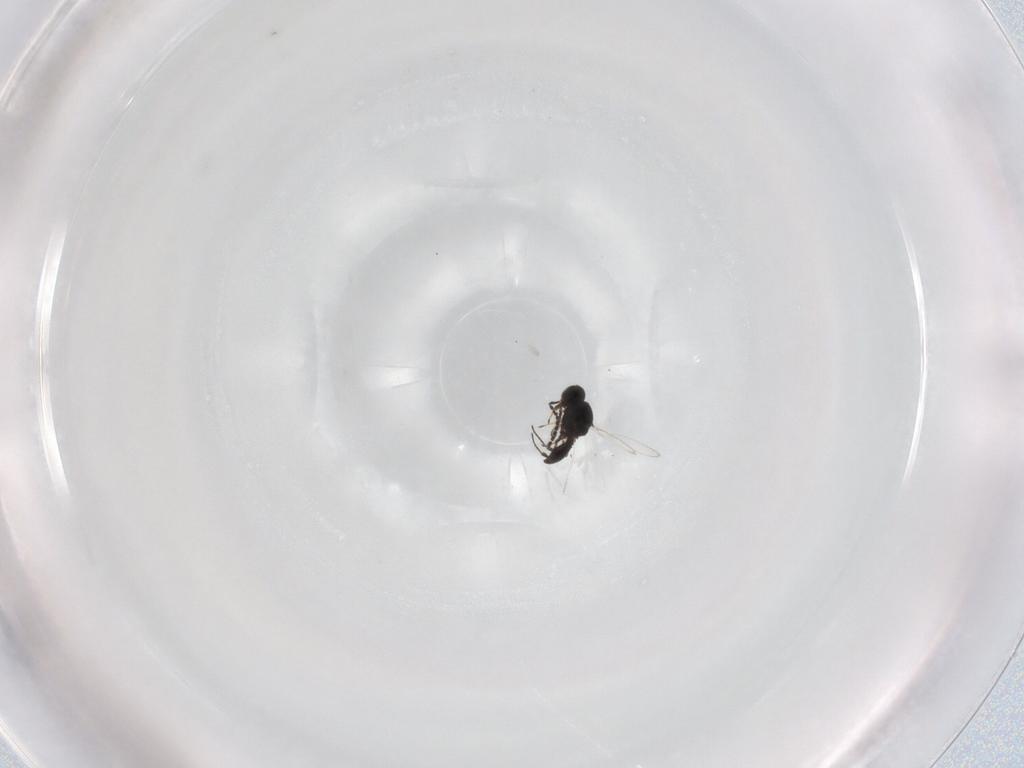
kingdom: Animalia
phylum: Arthropoda
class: Insecta
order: Hymenoptera
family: Platygastridae
